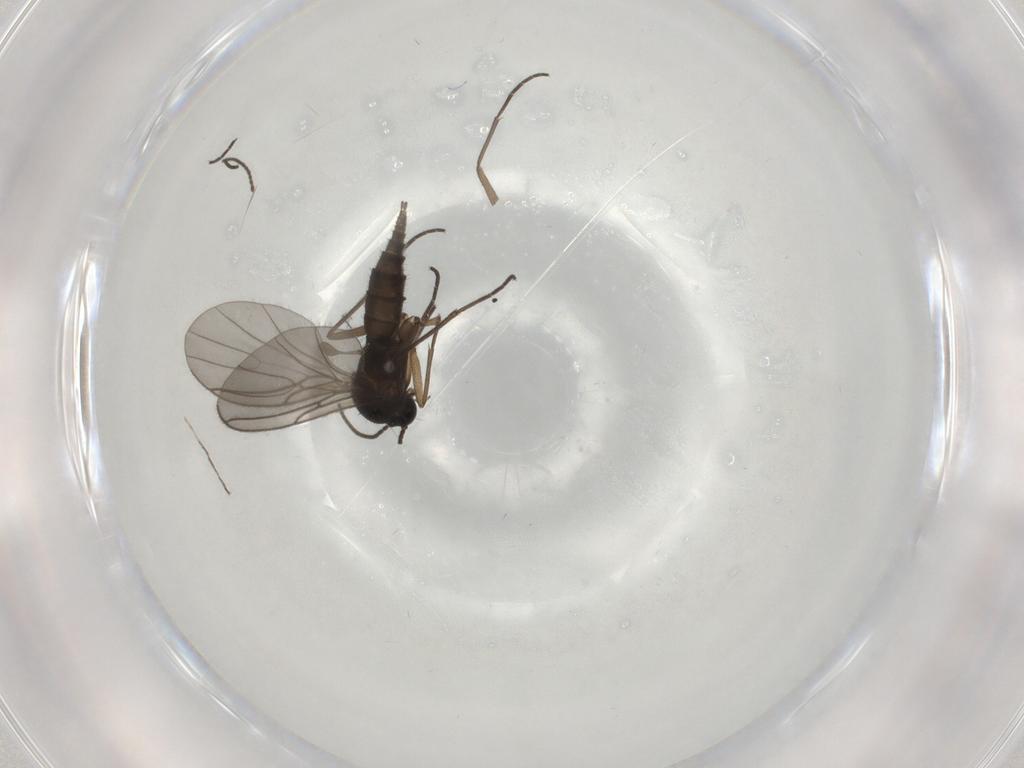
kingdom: Animalia
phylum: Arthropoda
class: Insecta
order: Diptera
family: Sciaridae
